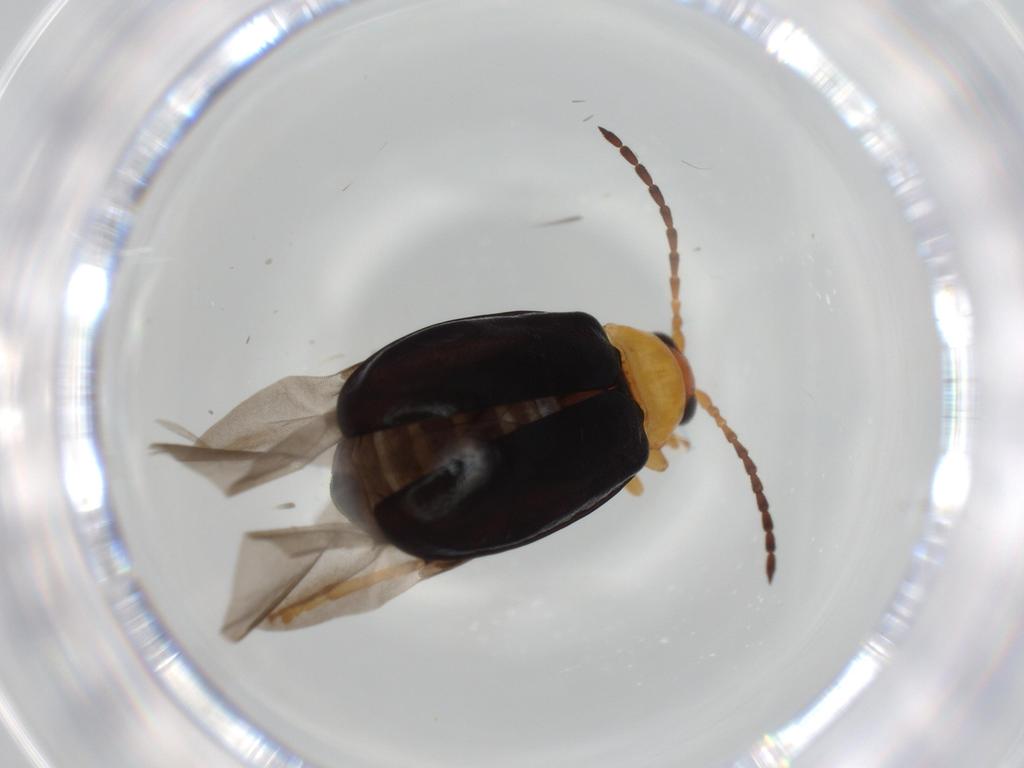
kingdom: Animalia
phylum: Arthropoda
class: Insecta
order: Coleoptera
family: Chrysomelidae
